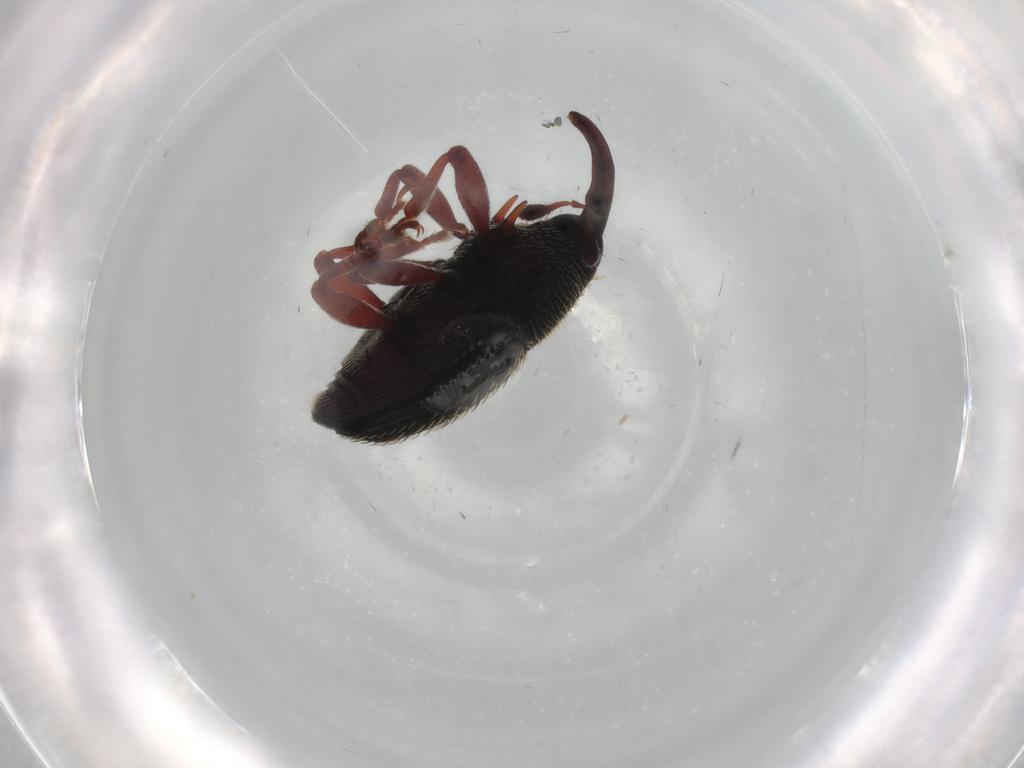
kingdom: Animalia
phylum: Arthropoda
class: Insecta
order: Coleoptera
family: Curculionidae
